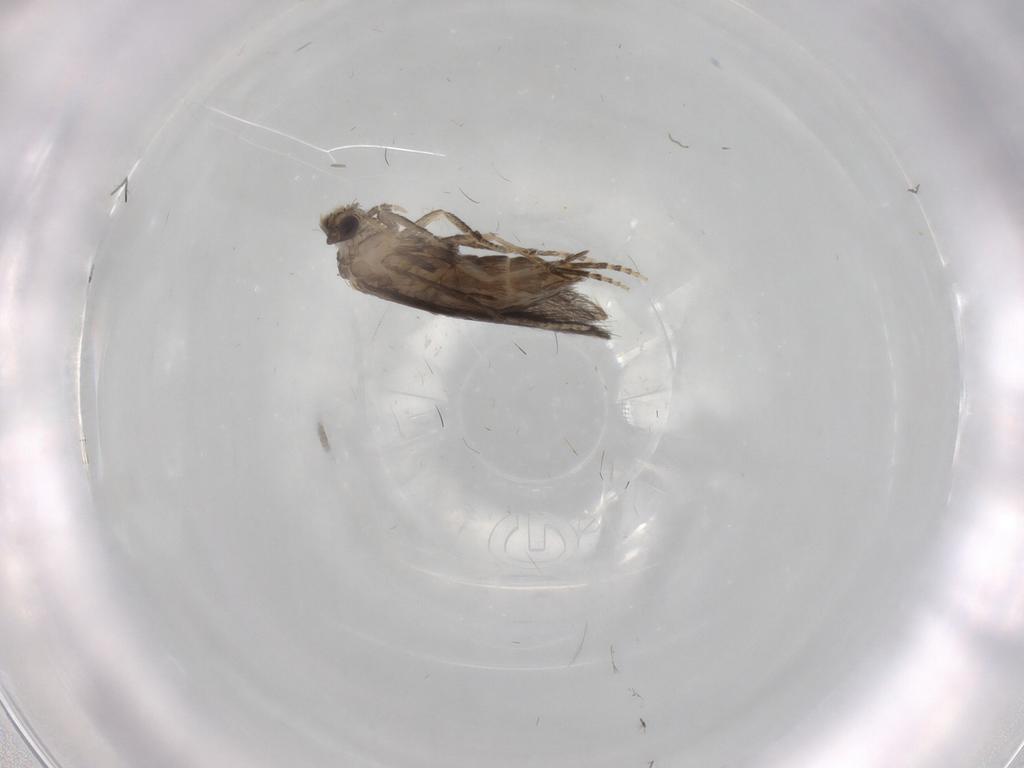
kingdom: Animalia
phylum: Arthropoda
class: Insecta
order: Trichoptera
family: Hydroptilidae
